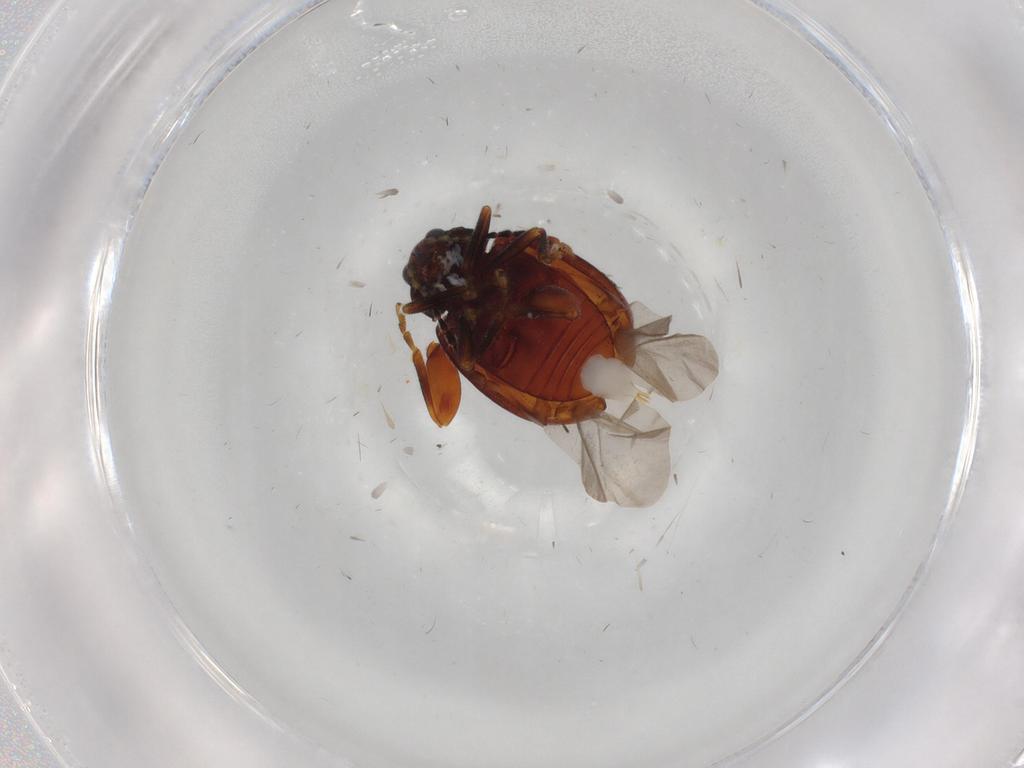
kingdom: Animalia
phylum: Arthropoda
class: Insecta
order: Coleoptera
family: Chrysomelidae
